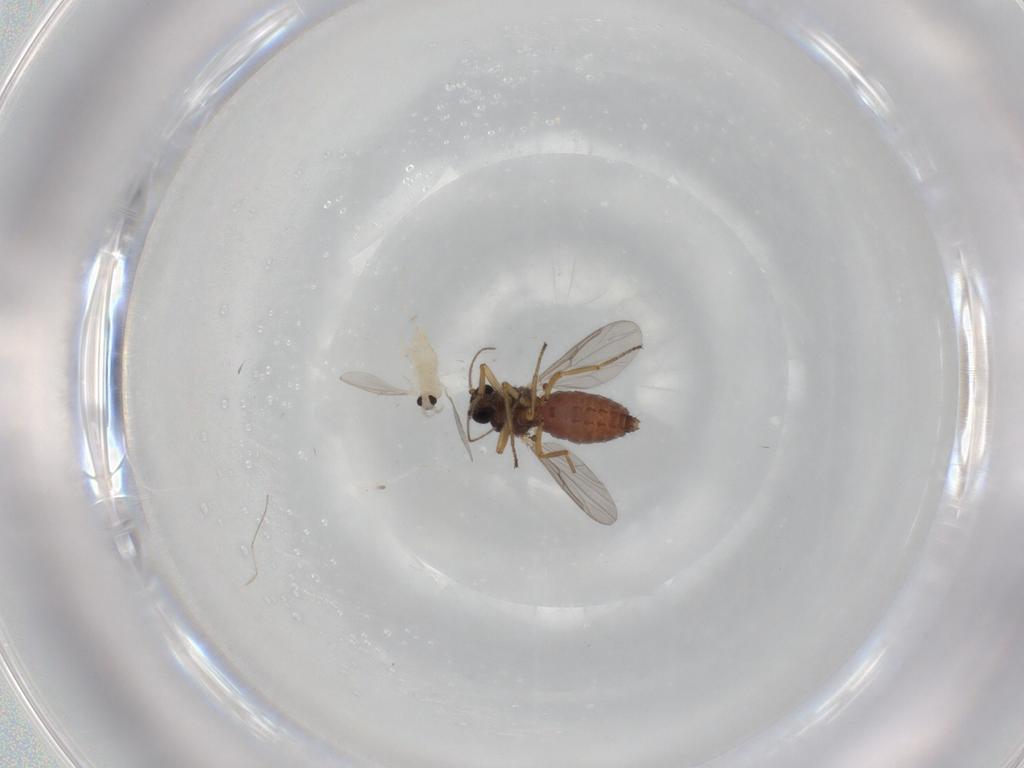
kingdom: Animalia
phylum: Arthropoda
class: Insecta
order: Diptera
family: Ceratopogonidae
